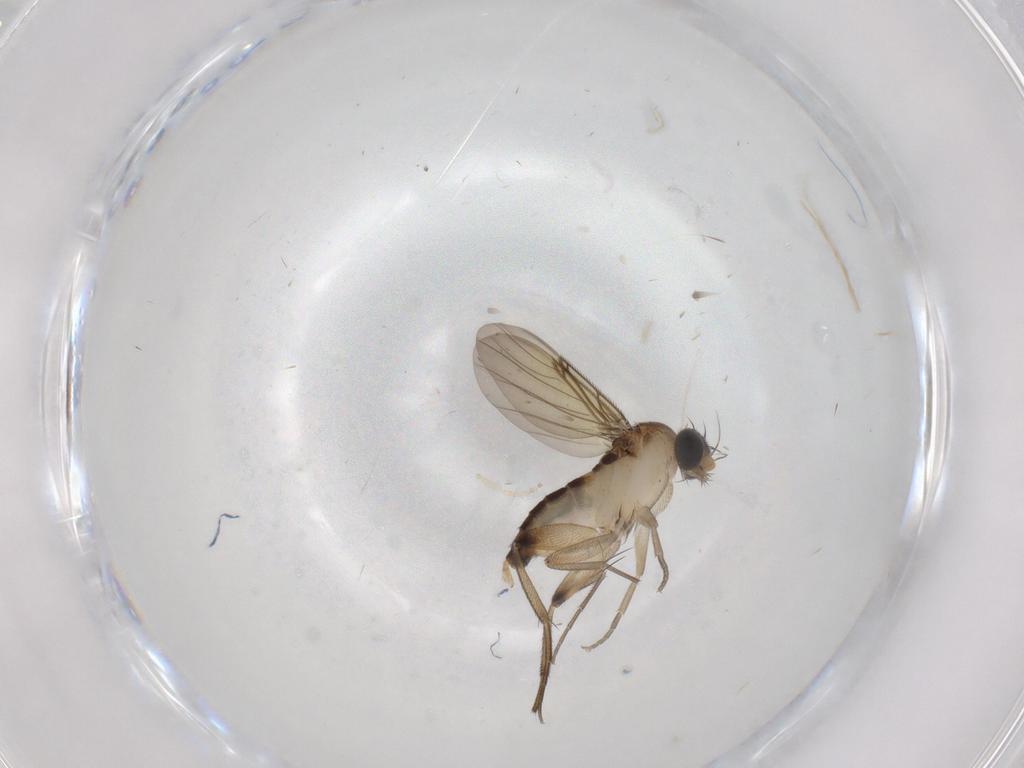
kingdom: Animalia
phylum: Arthropoda
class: Insecta
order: Diptera
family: Phoridae
